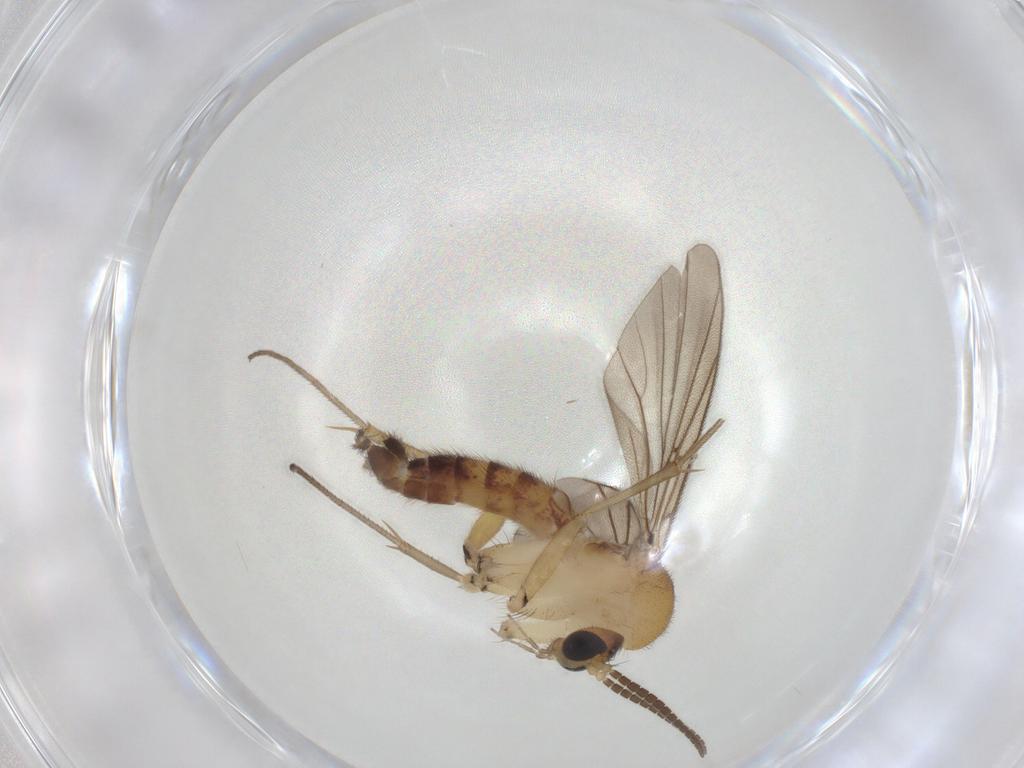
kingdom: Animalia
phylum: Arthropoda
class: Insecta
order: Diptera
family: Mycetophilidae
